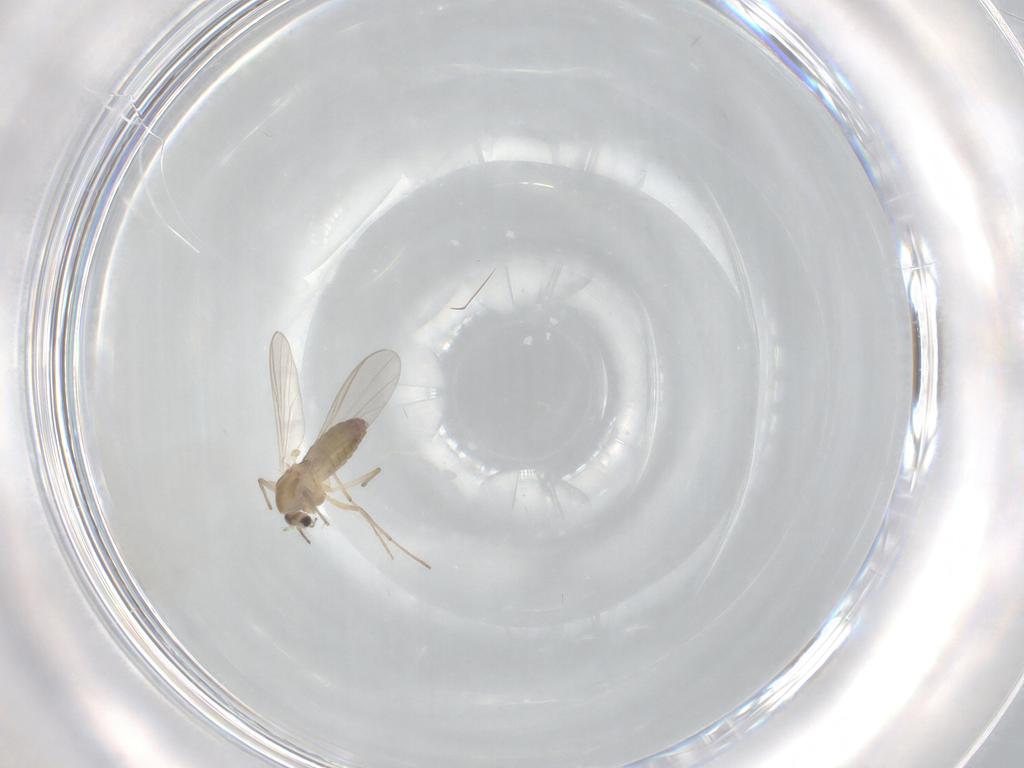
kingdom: Animalia
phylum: Arthropoda
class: Insecta
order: Diptera
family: Chironomidae
